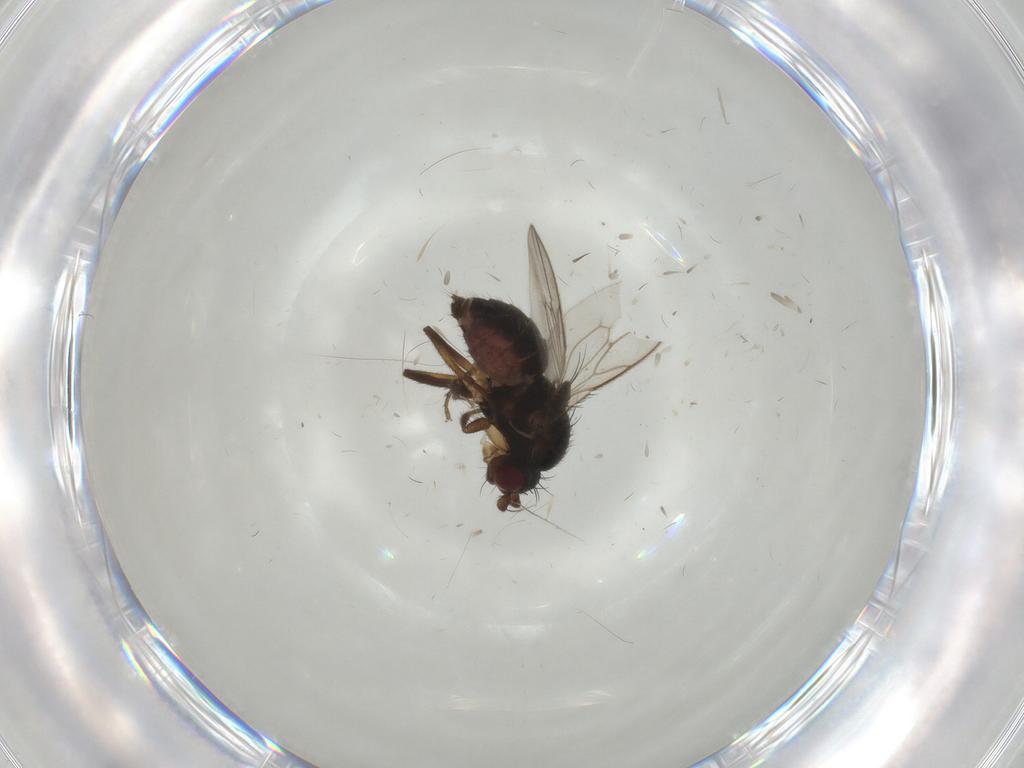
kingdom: Animalia
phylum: Arthropoda
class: Insecta
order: Diptera
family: Sphaeroceridae
